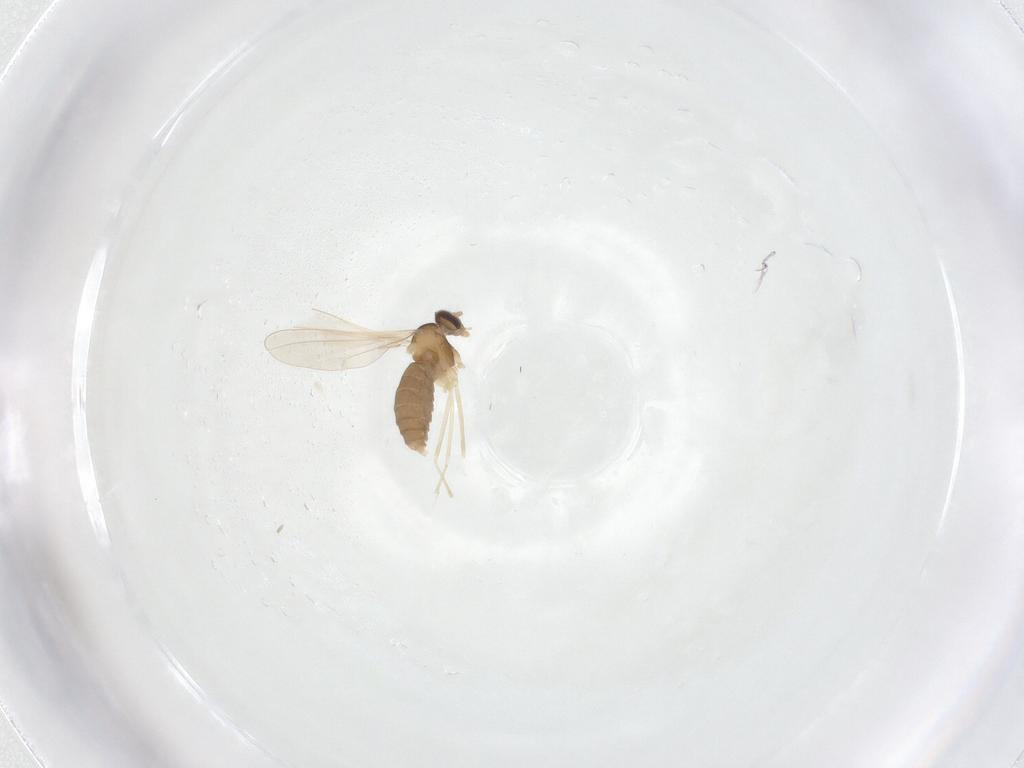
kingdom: Animalia
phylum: Arthropoda
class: Insecta
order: Diptera
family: Cecidomyiidae
